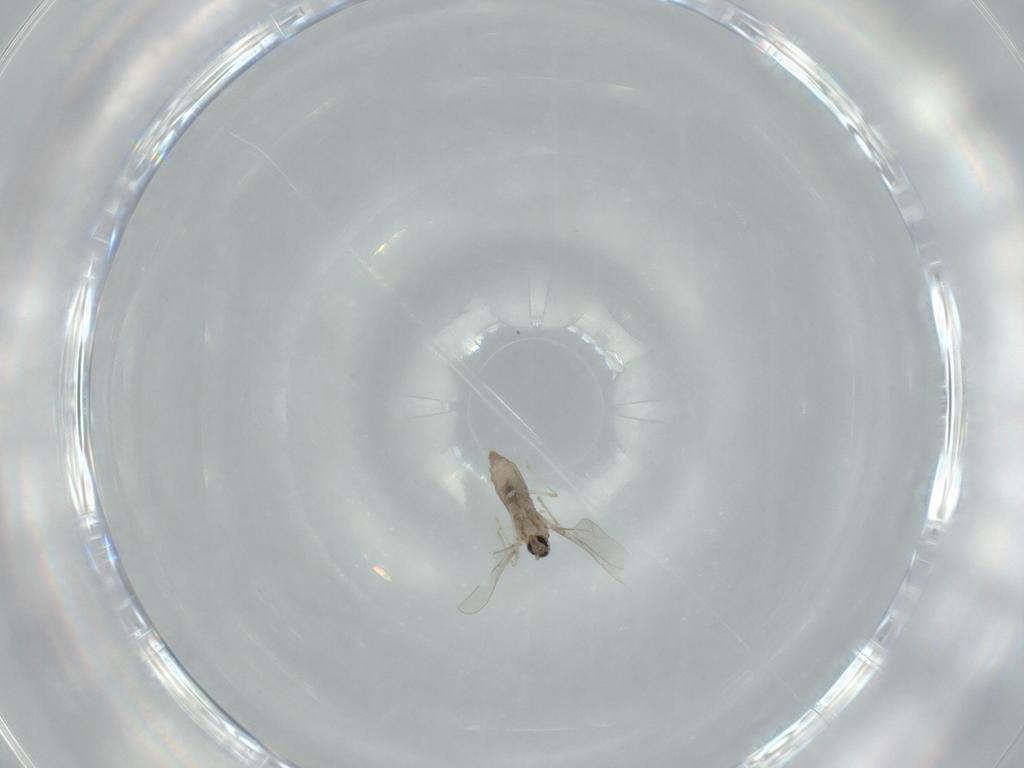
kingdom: Animalia
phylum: Arthropoda
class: Insecta
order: Diptera
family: Cecidomyiidae
